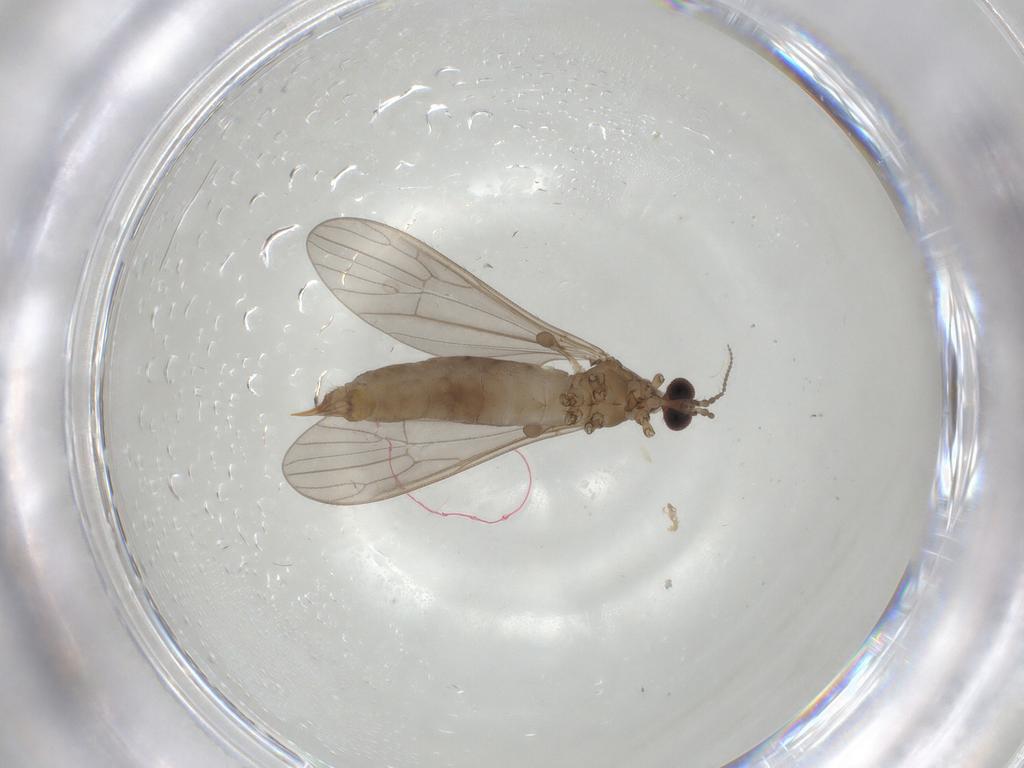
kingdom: Animalia
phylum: Arthropoda
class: Insecta
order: Diptera
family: Limoniidae
